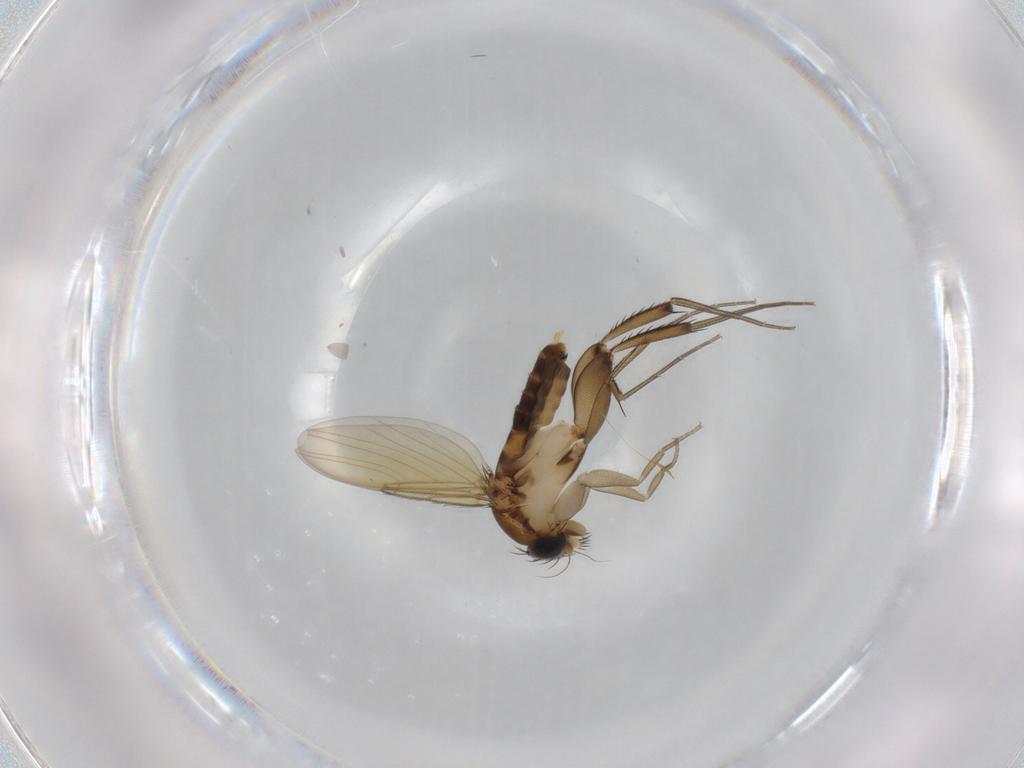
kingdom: Animalia
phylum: Arthropoda
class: Insecta
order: Diptera
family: Phoridae
